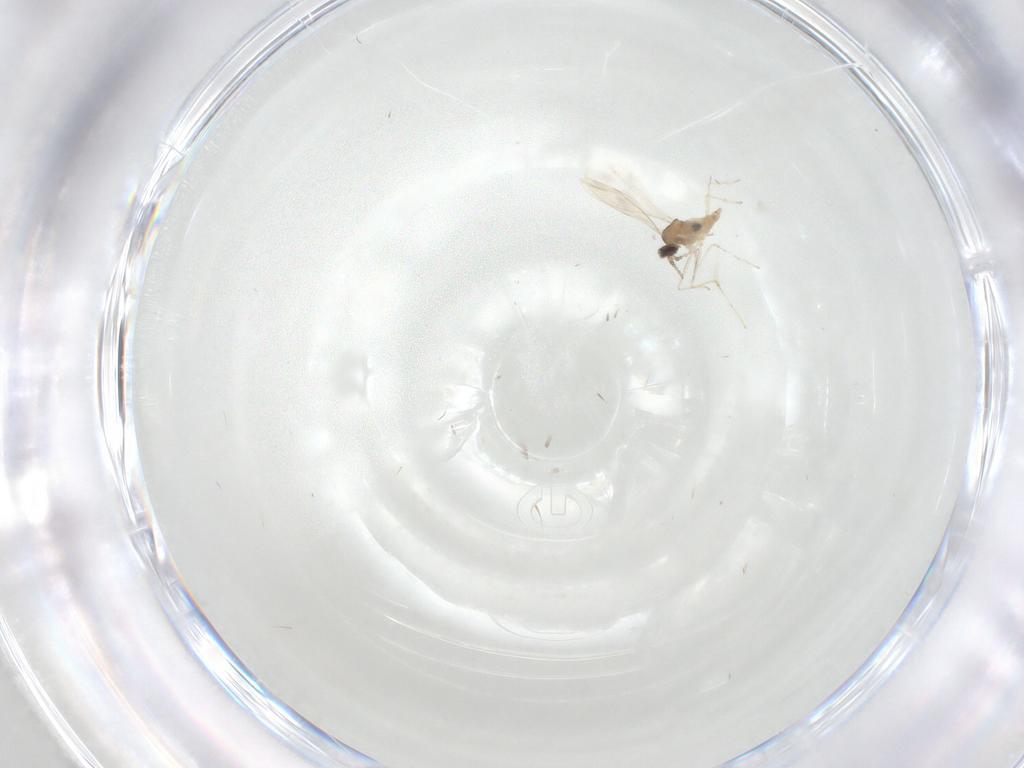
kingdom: Animalia
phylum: Arthropoda
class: Insecta
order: Diptera
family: Cecidomyiidae
